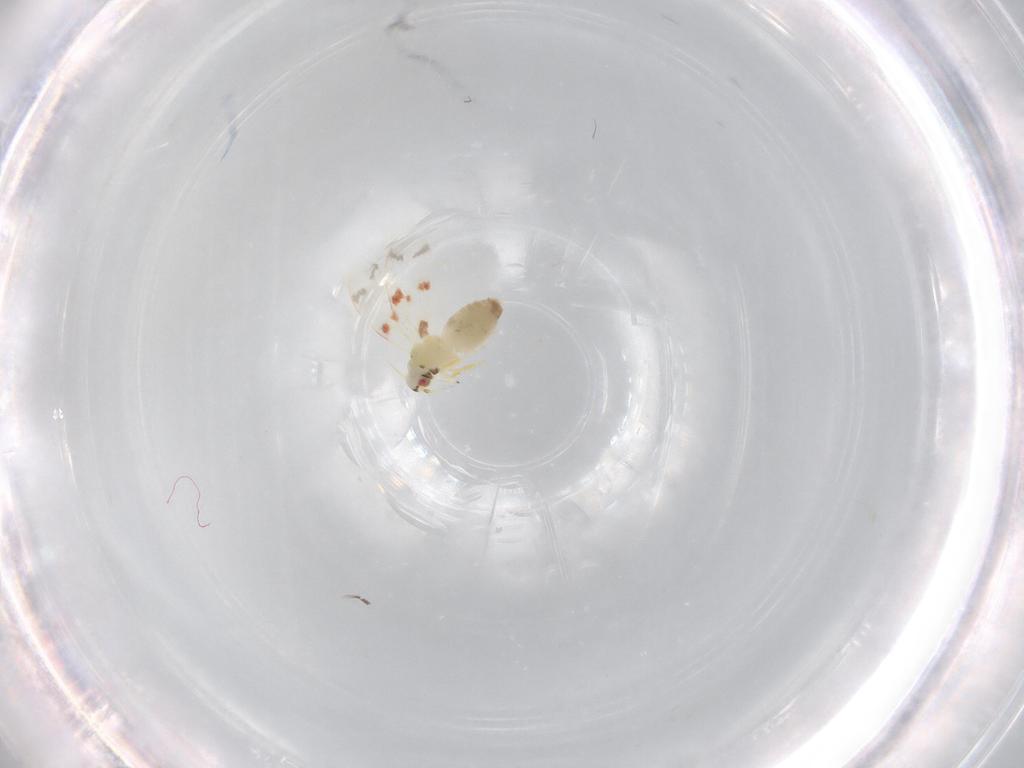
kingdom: Animalia
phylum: Arthropoda
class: Insecta
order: Hemiptera
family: Aleyrodidae
